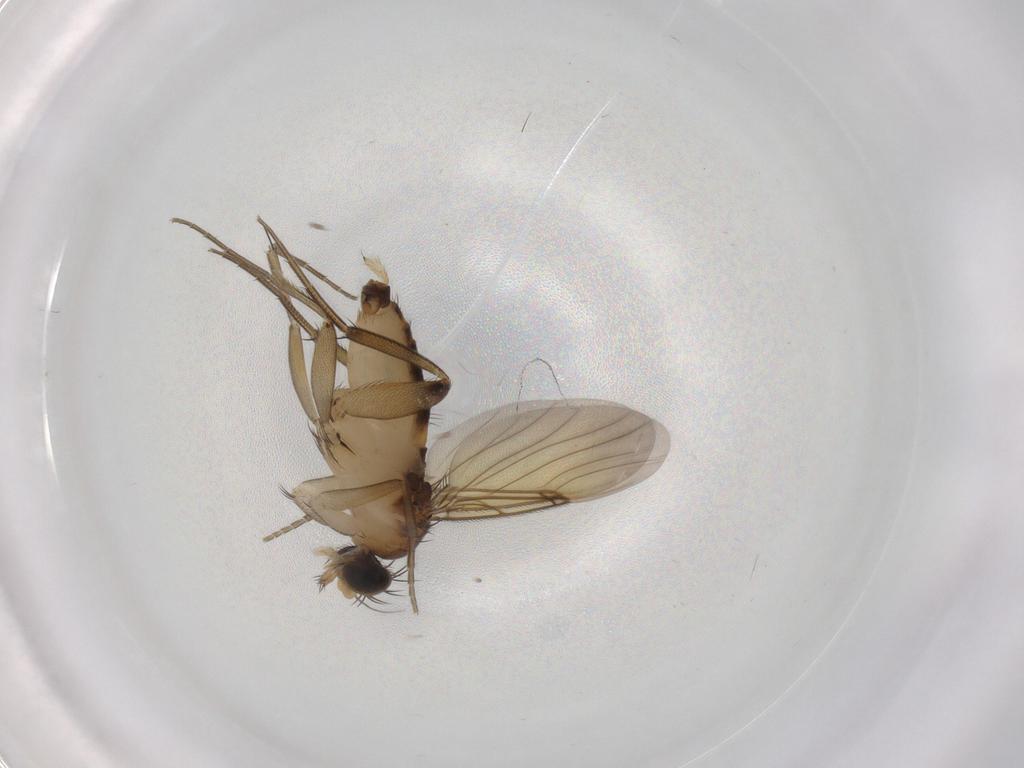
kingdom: Animalia
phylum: Arthropoda
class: Insecta
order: Diptera
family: Phoridae
